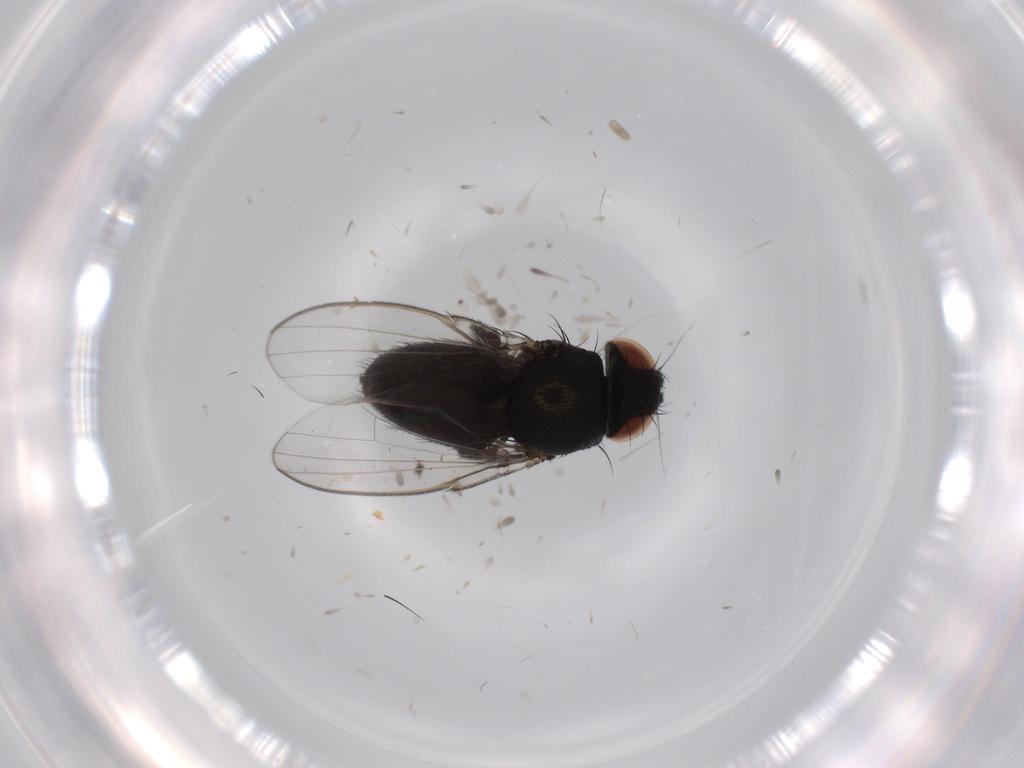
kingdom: Animalia
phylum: Arthropoda
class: Insecta
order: Diptera
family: Milichiidae
